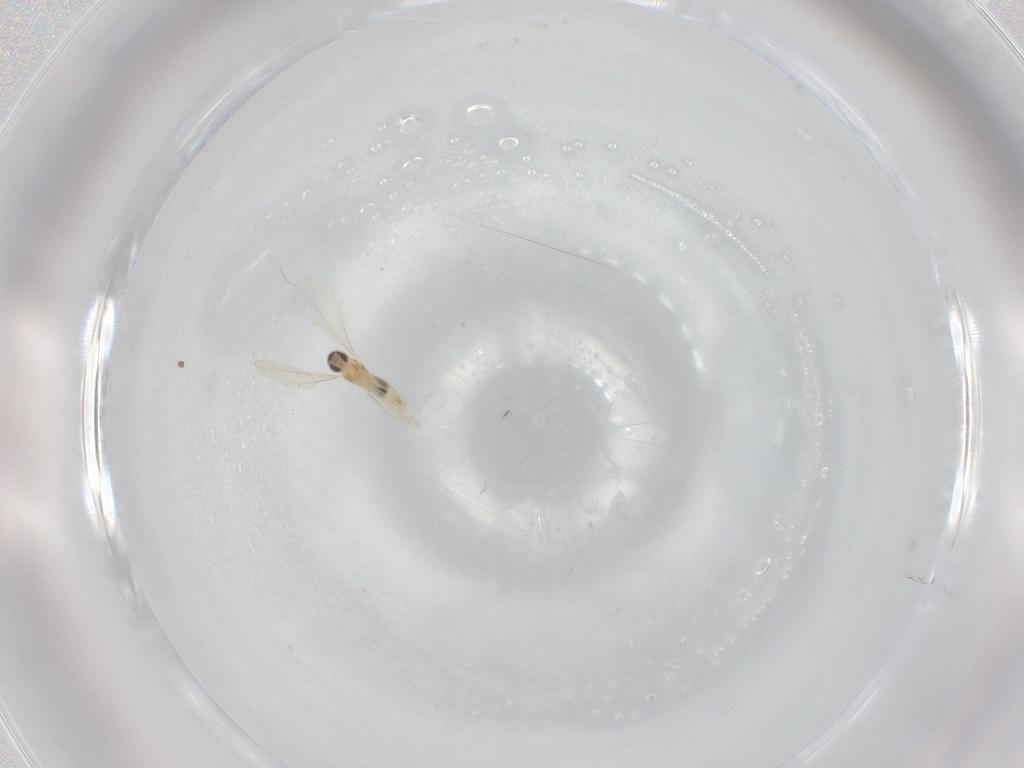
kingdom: Animalia
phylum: Arthropoda
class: Insecta
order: Diptera
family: Cecidomyiidae
